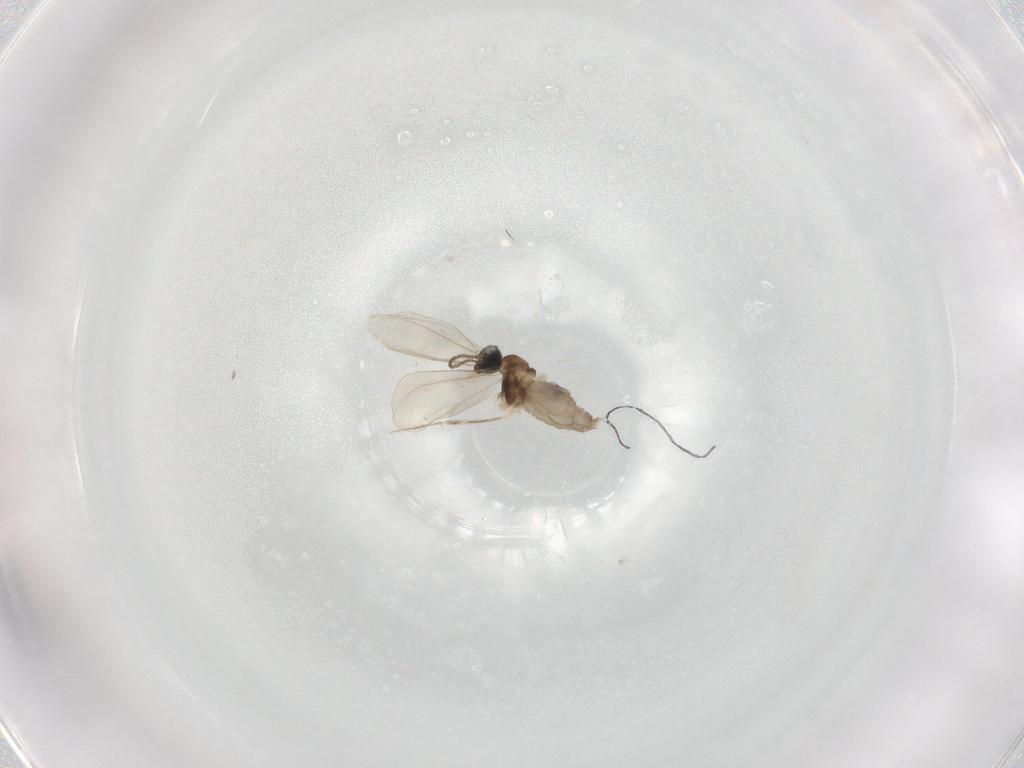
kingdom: Animalia
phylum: Arthropoda
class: Insecta
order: Diptera
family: Cecidomyiidae
